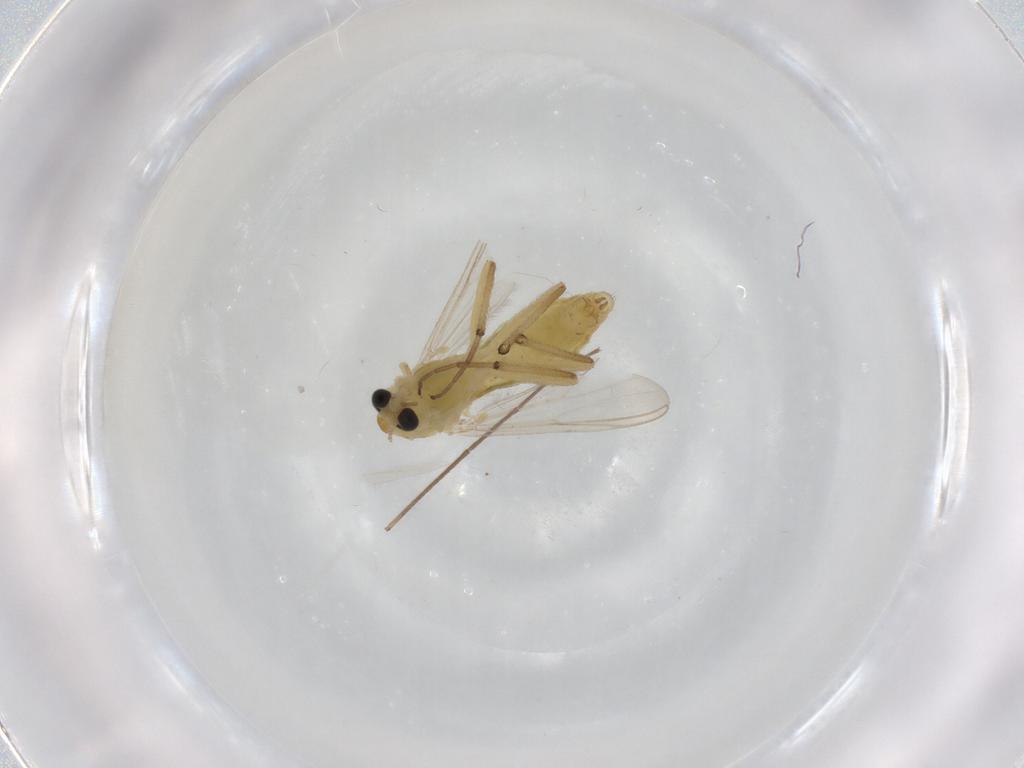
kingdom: Animalia
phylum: Arthropoda
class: Insecta
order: Diptera
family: Chironomidae
